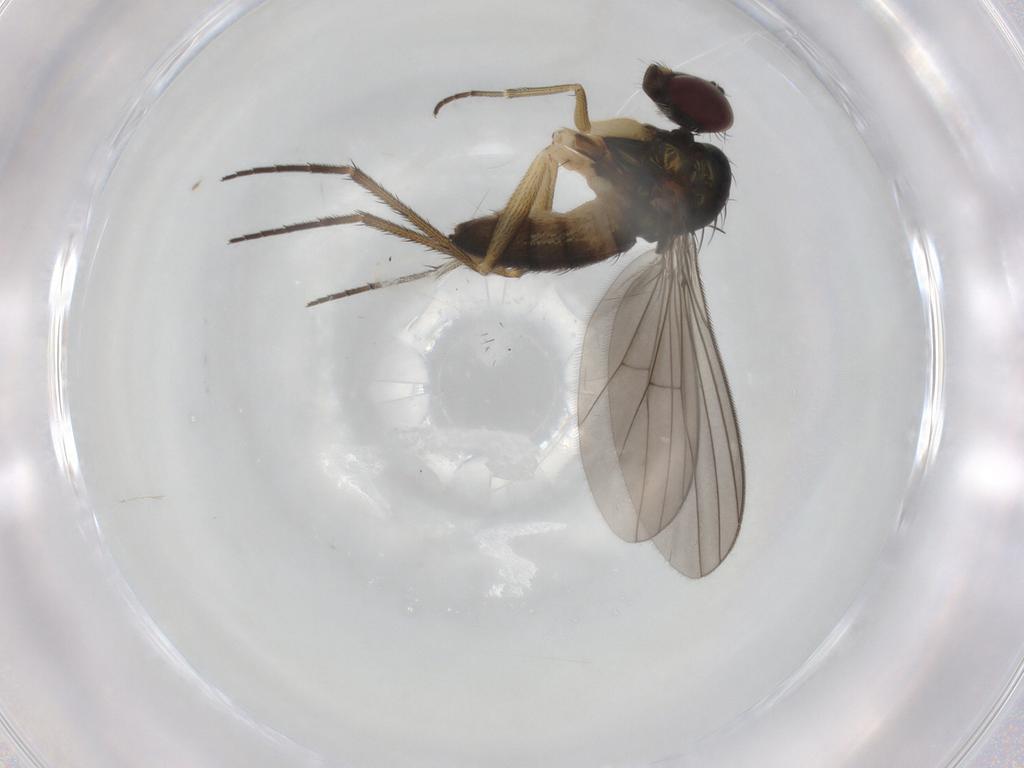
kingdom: Animalia
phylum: Arthropoda
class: Insecta
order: Diptera
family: Dolichopodidae
